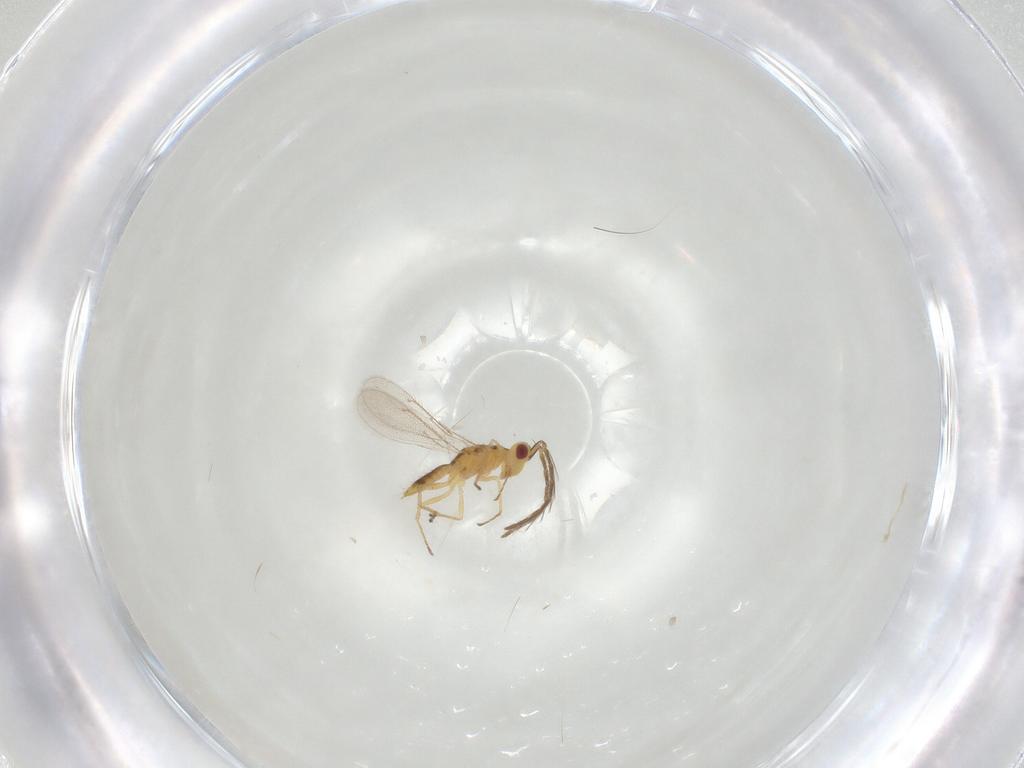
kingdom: Animalia
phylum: Arthropoda
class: Insecta
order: Hymenoptera
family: Eulophidae
